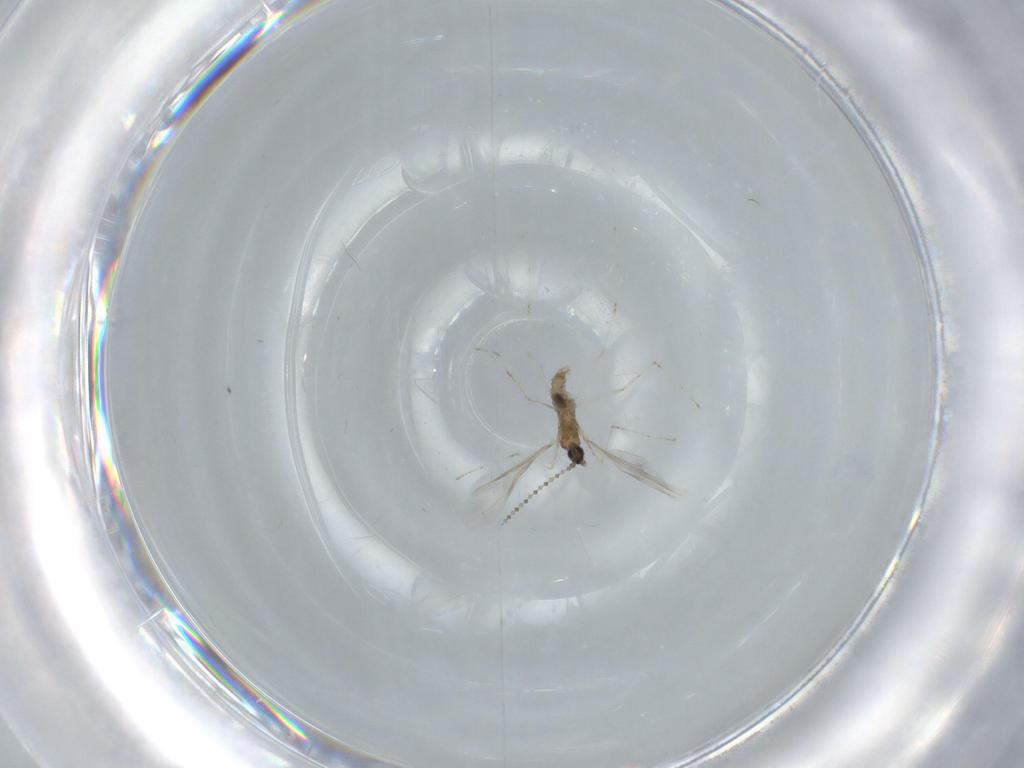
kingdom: Animalia
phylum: Arthropoda
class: Insecta
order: Diptera
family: Cecidomyiidae
